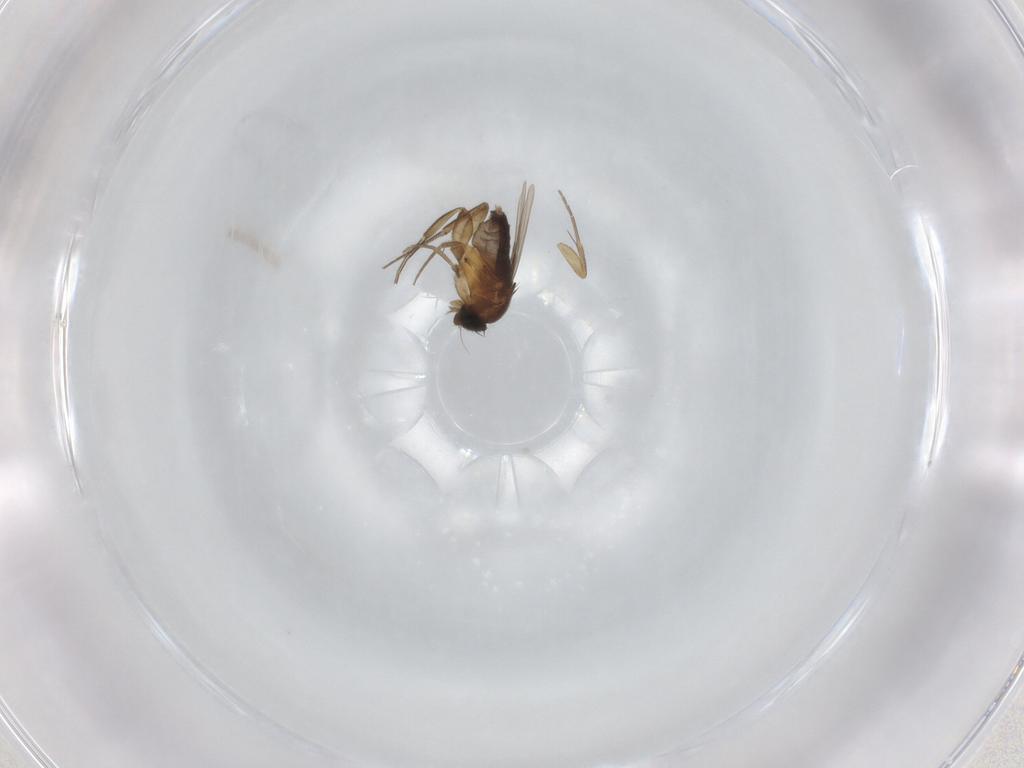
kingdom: Animalia
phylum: Arthropoda
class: Insecta
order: Diptera
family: Phoridae
